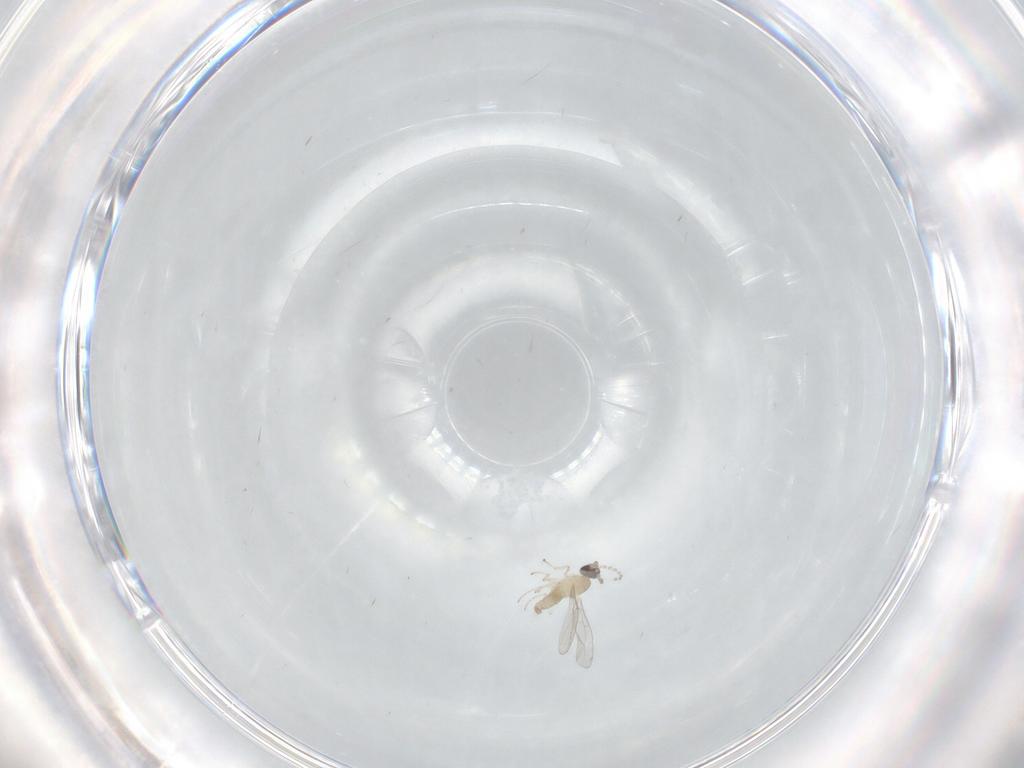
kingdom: Animalia
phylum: Arthropoda
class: Insecta
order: Diptera
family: Cecidomyiidae
